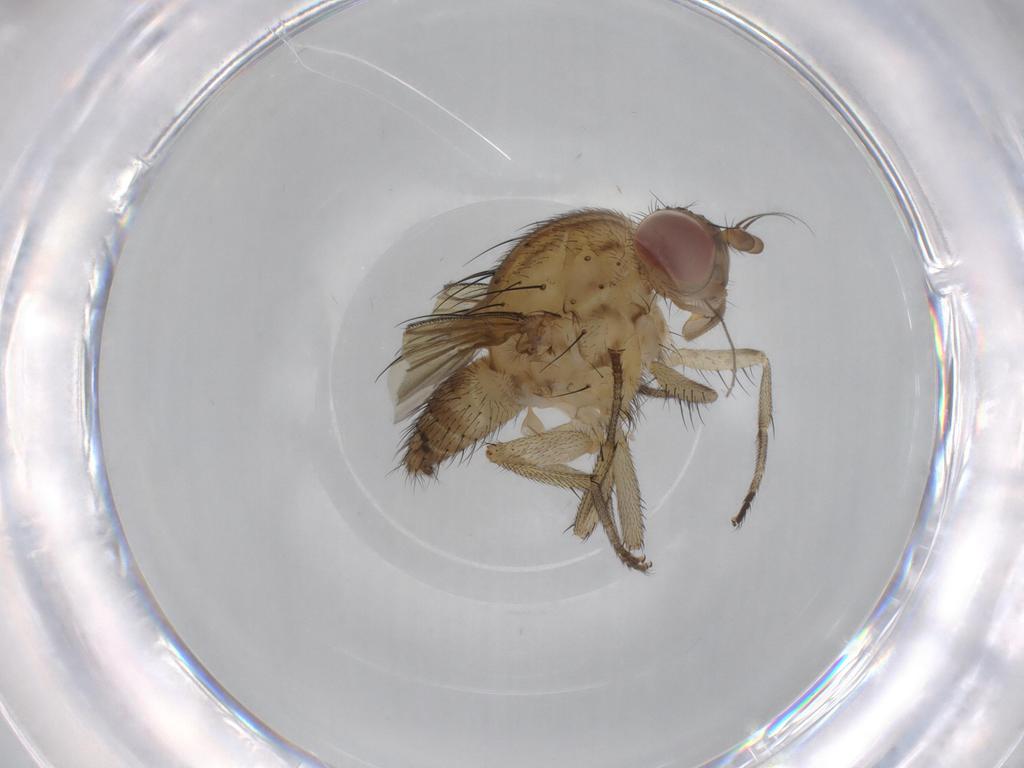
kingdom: Animalia
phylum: Arthropoda
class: Insecta
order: Diptera
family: Chironomidae
